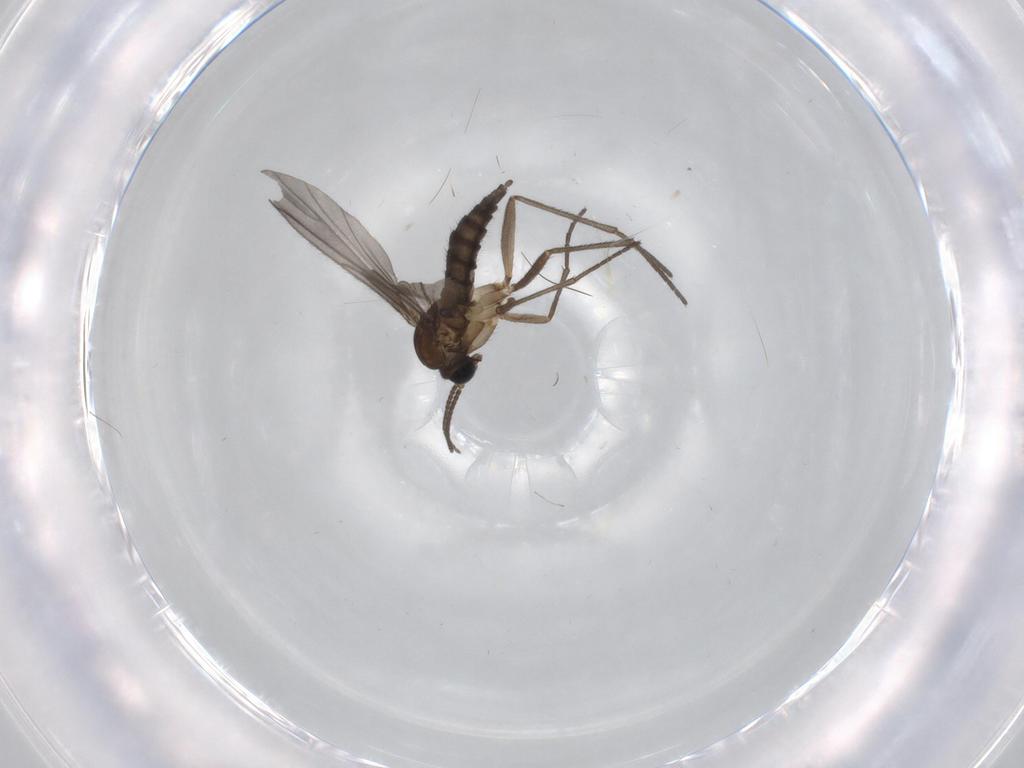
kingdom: Animalia
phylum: Arthropoda
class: Insecta
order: Diptera
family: Sciaridae
